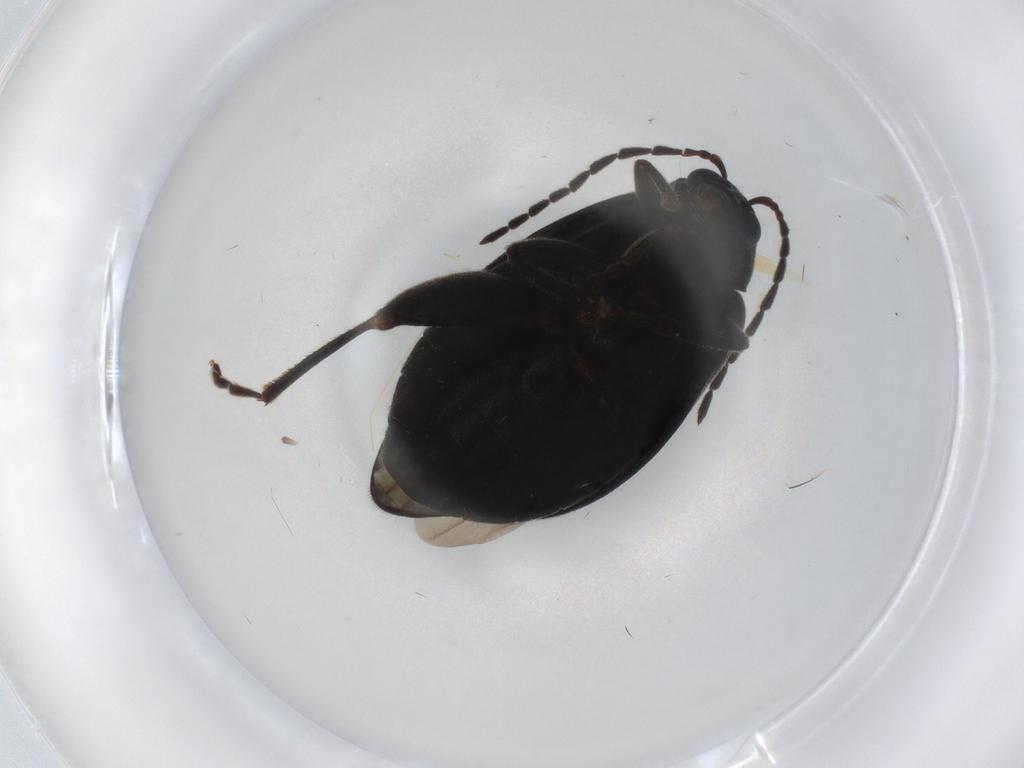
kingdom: Animalia
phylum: Arthropoda
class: Insecta
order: Coleoptera
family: Chrysomelidae
